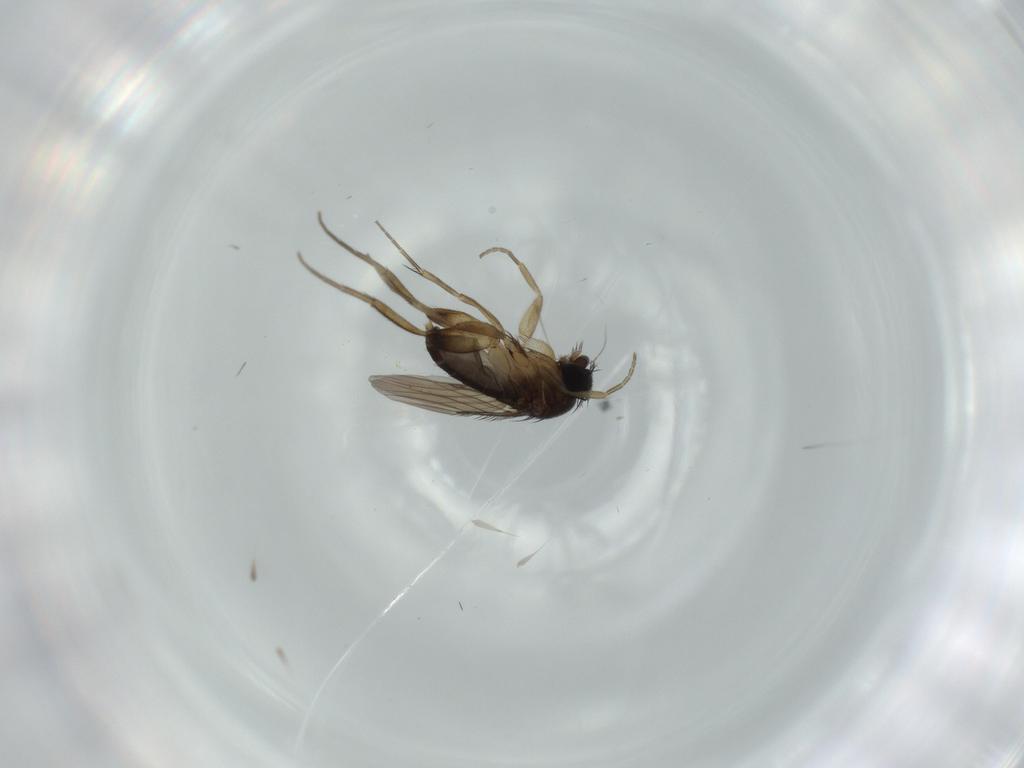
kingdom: Animalia
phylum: Arthropoda
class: Insecta
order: Diptera
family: Phoridae
